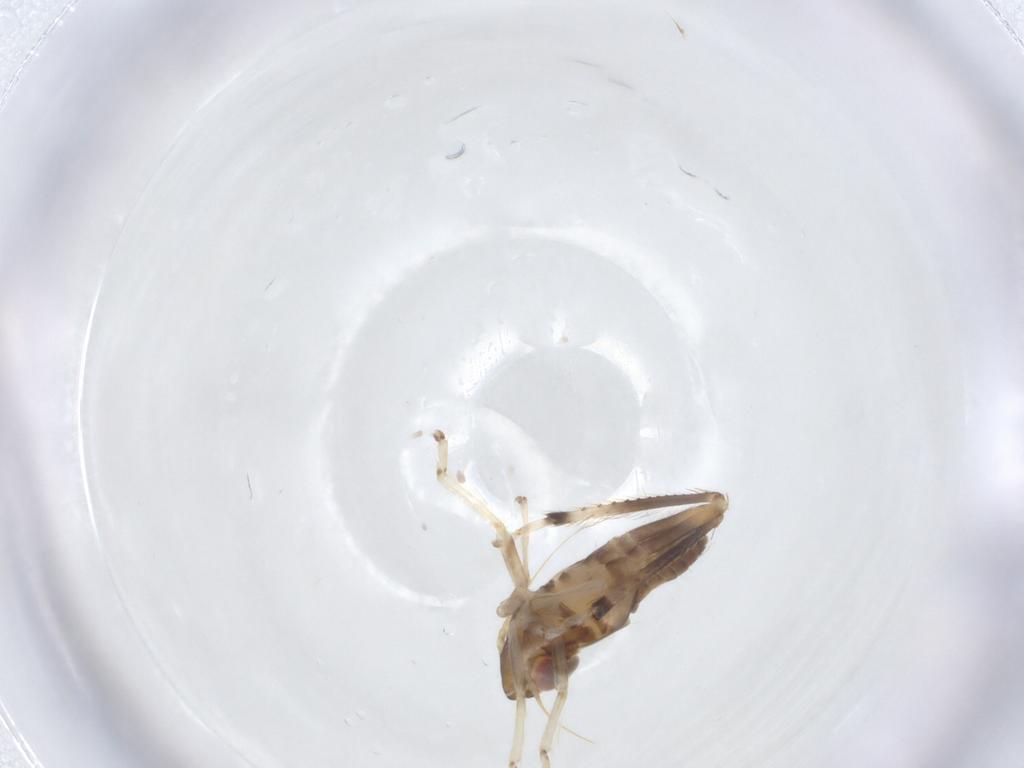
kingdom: Animalia
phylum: Arthropoda
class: Insecta
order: Hemiptera
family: Cicadellidae
